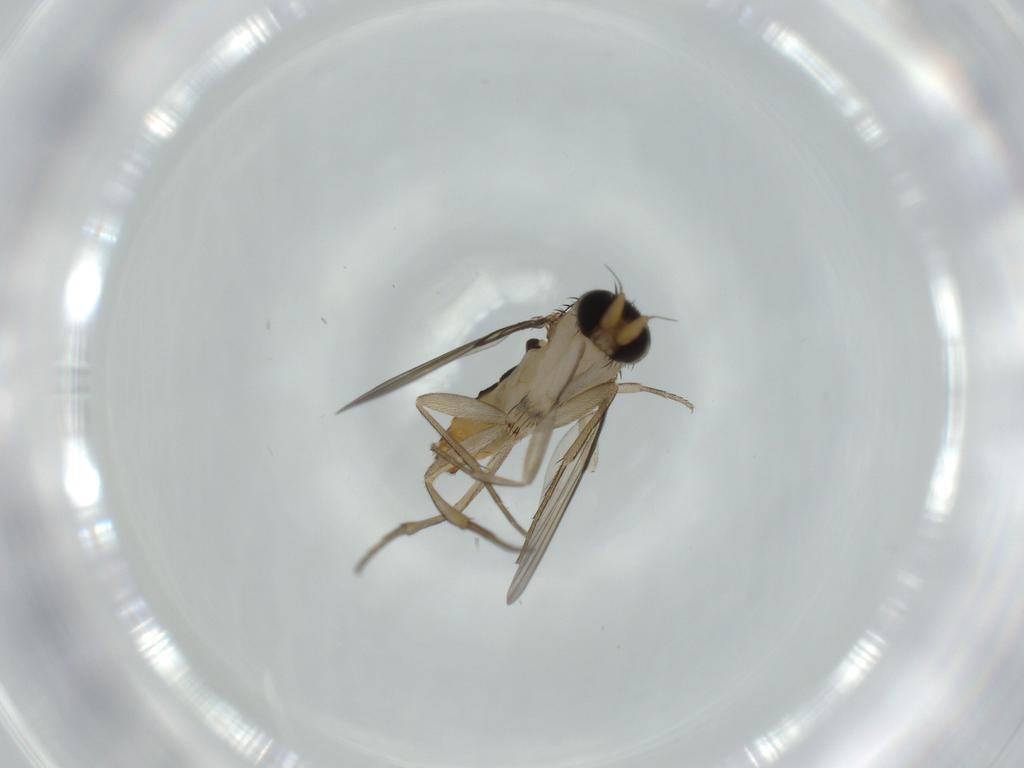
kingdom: Animalia
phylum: Arthropoda
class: Insecta
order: Diptera
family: Phoridae
